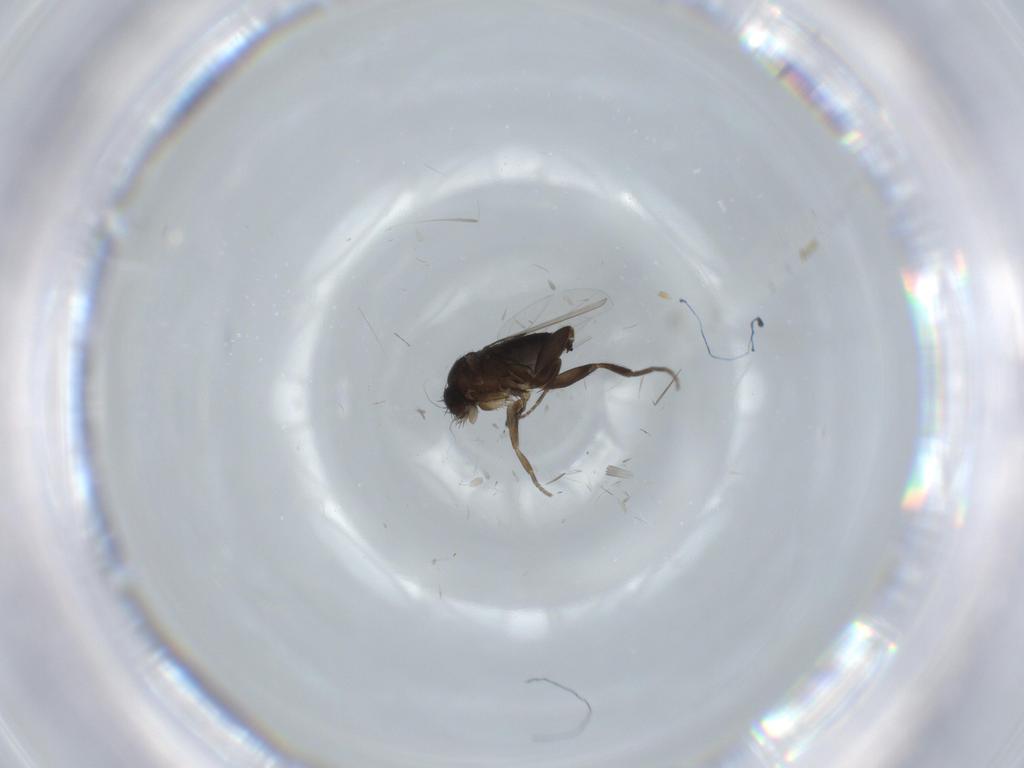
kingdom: Animalia
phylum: Arthropoda
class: Insecta
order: Diptera
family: Phoridae
